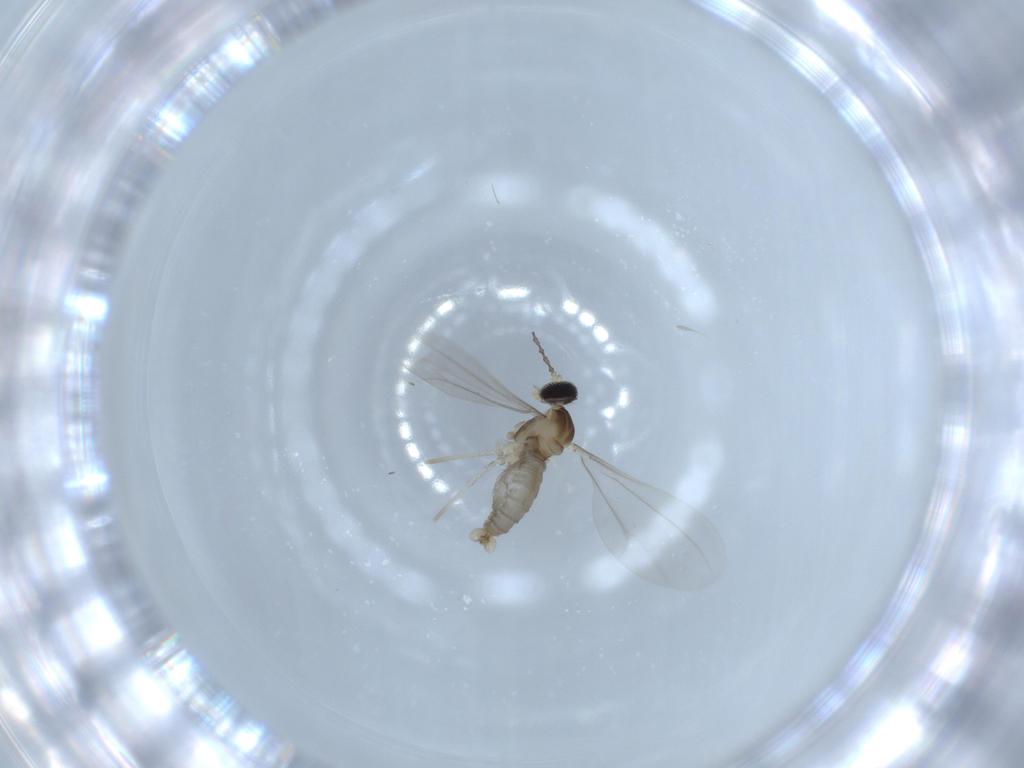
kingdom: Animalia
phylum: Arthropoda
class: Insecta
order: Diptera
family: Cecidomyiidae
